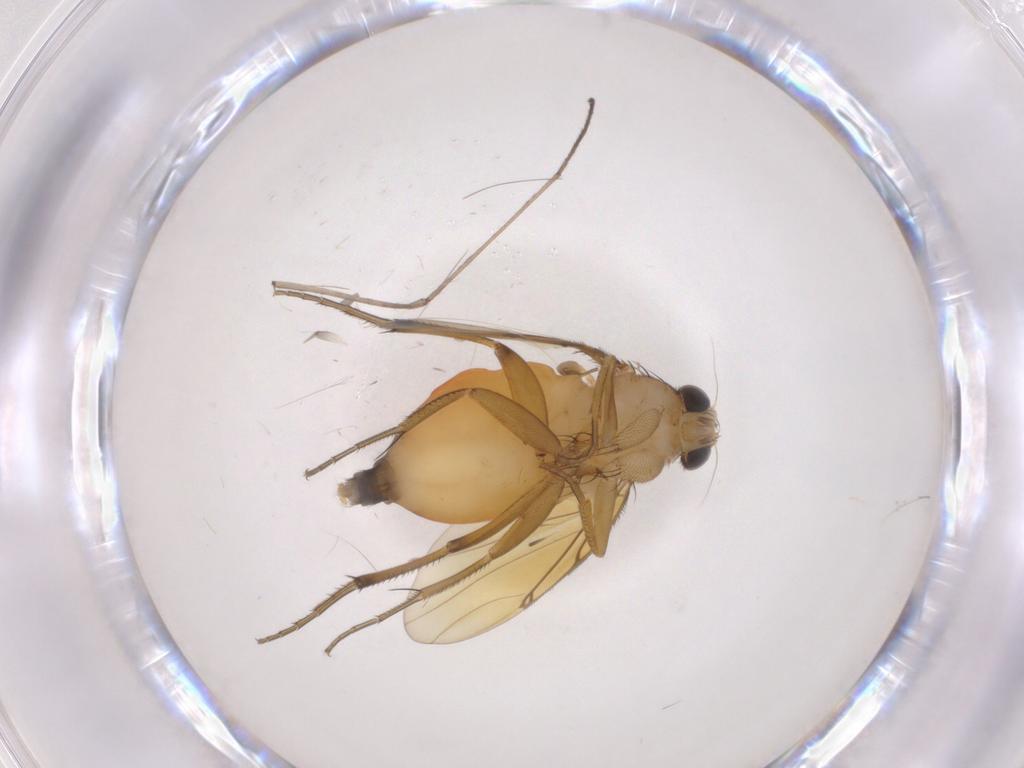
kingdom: Animalia
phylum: Arthropoda
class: Insecta
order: Diptera
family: Phoridae
